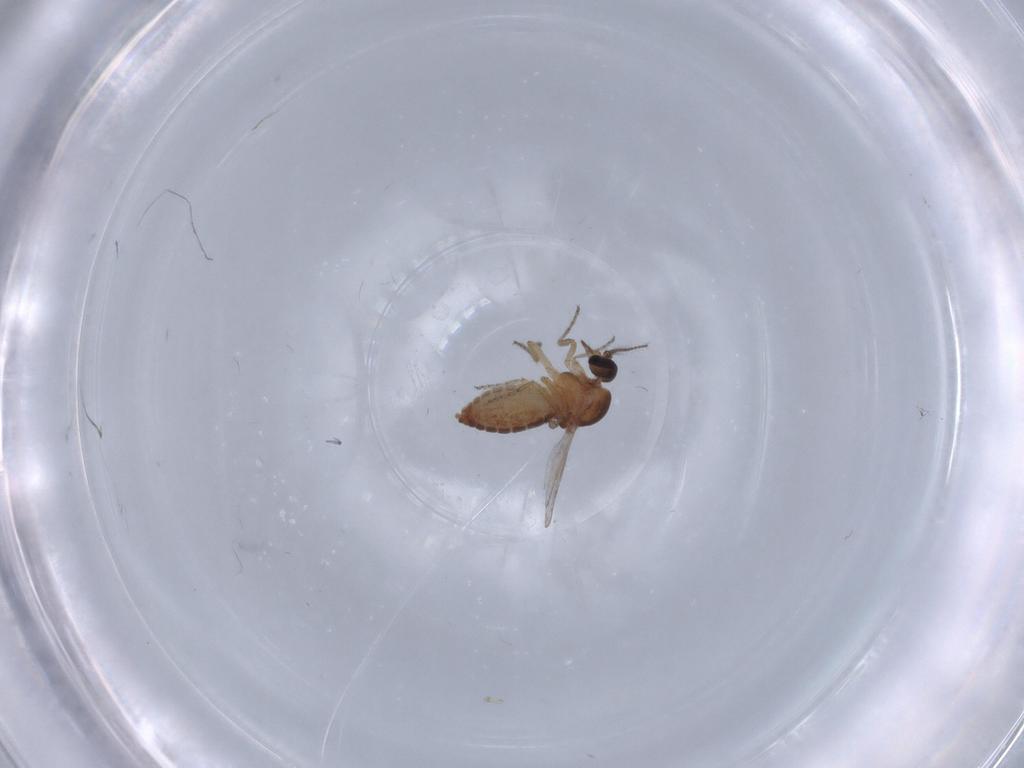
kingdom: Animalia
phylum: Arthropoda
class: Insecta
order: Diptera
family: Ceratopogonidae
